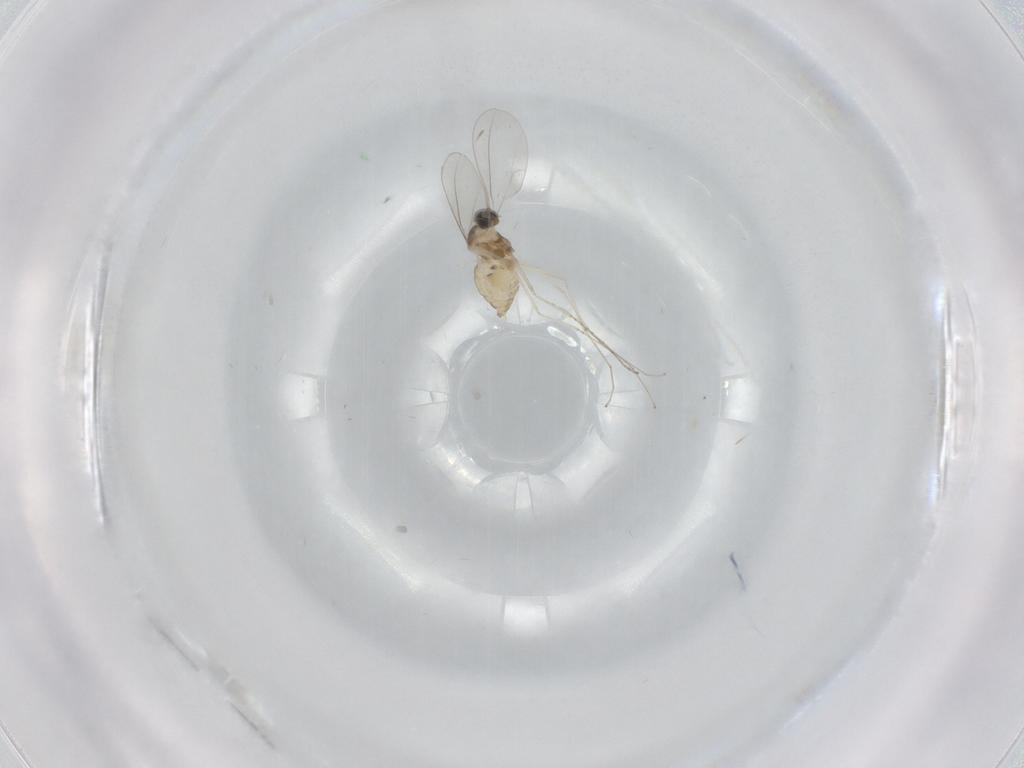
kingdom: Animalia
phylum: Arthropoda
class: Insecta
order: Diptera
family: Cecidomyiidae
